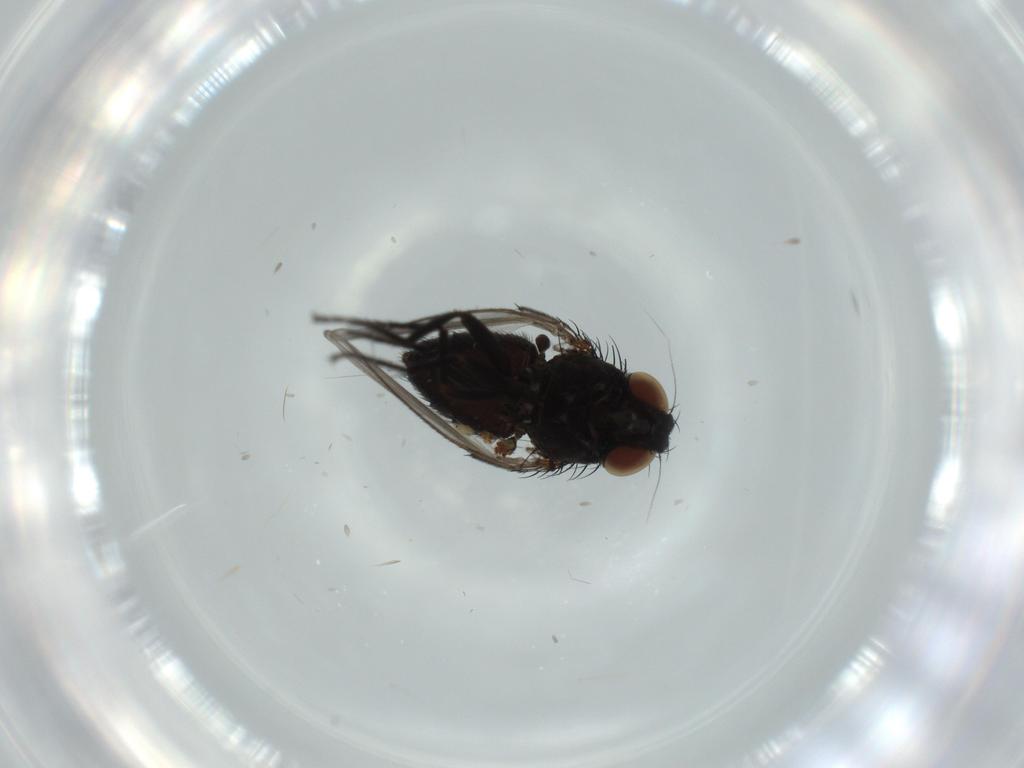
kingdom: Animalia
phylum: Arthropoda
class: Insecta
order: Diptera
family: Milichiidae
